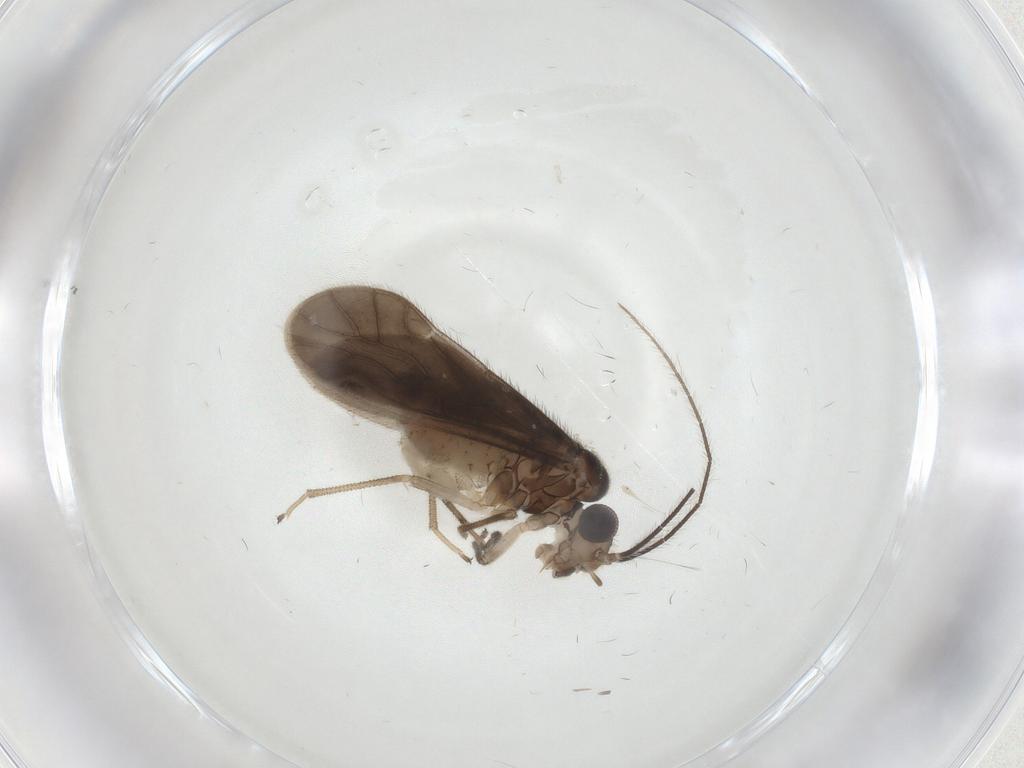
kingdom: Animalia
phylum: Arthropoda
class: Insecta
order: Psocodea
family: Caeciliusidae
